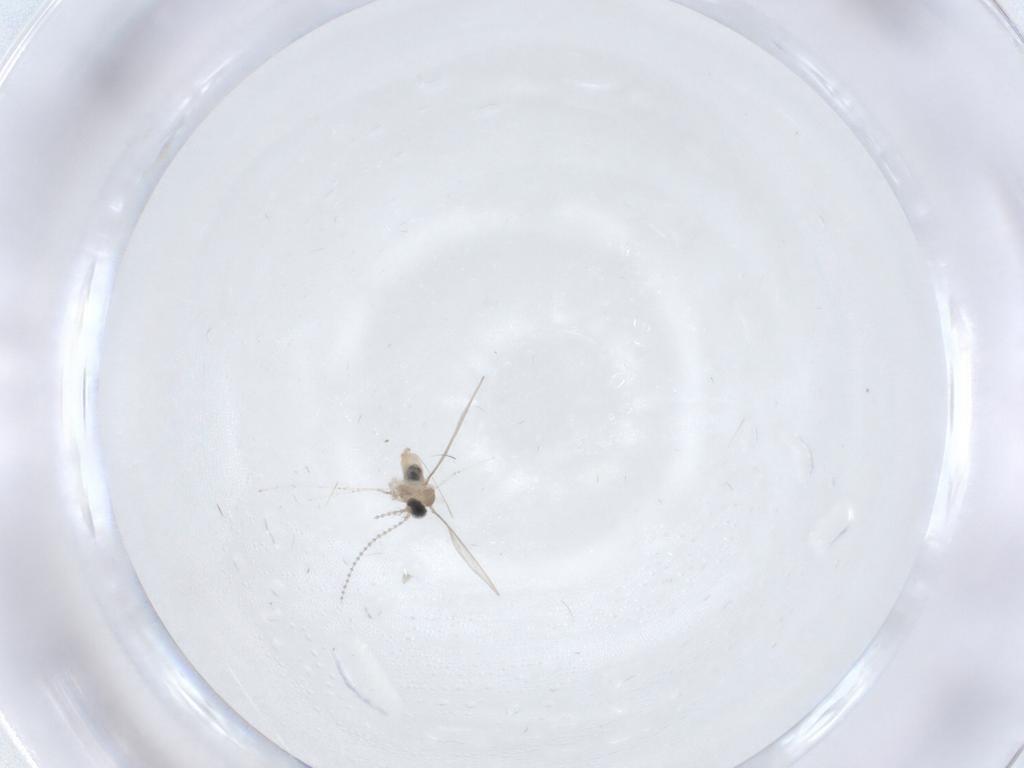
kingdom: Animalia
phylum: Arthropoda
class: Insecta
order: Diptera
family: Cecidomyiidae
